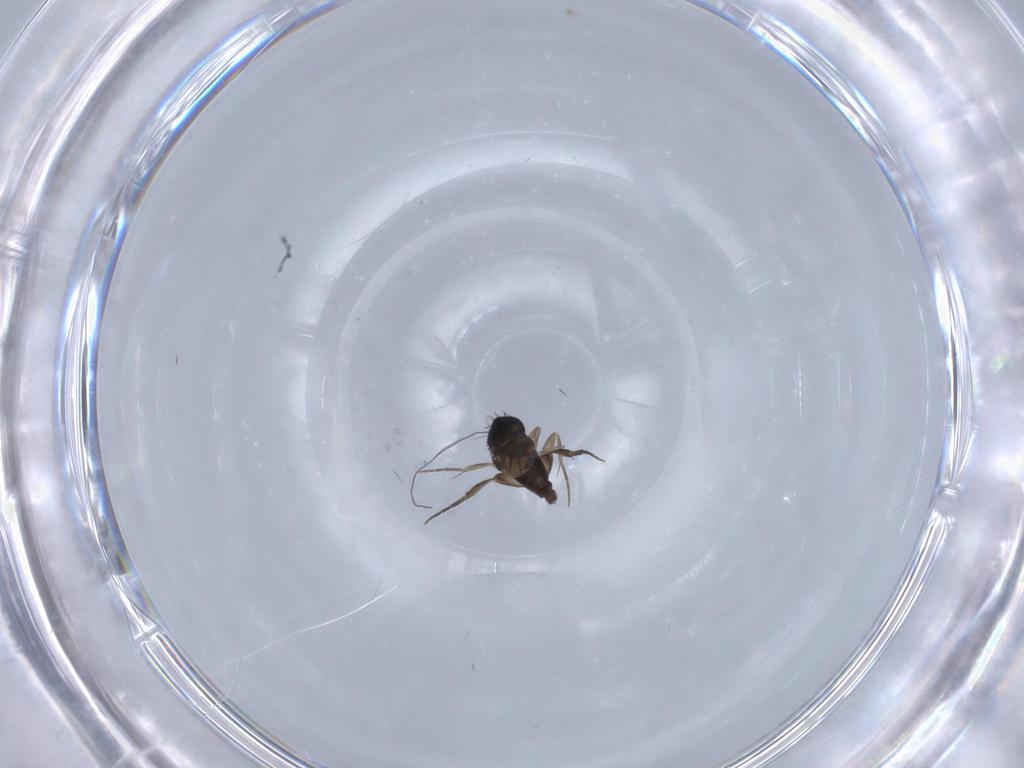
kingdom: Animalia
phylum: Arthropoda
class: Insecta
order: Diptera
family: Phoridae
